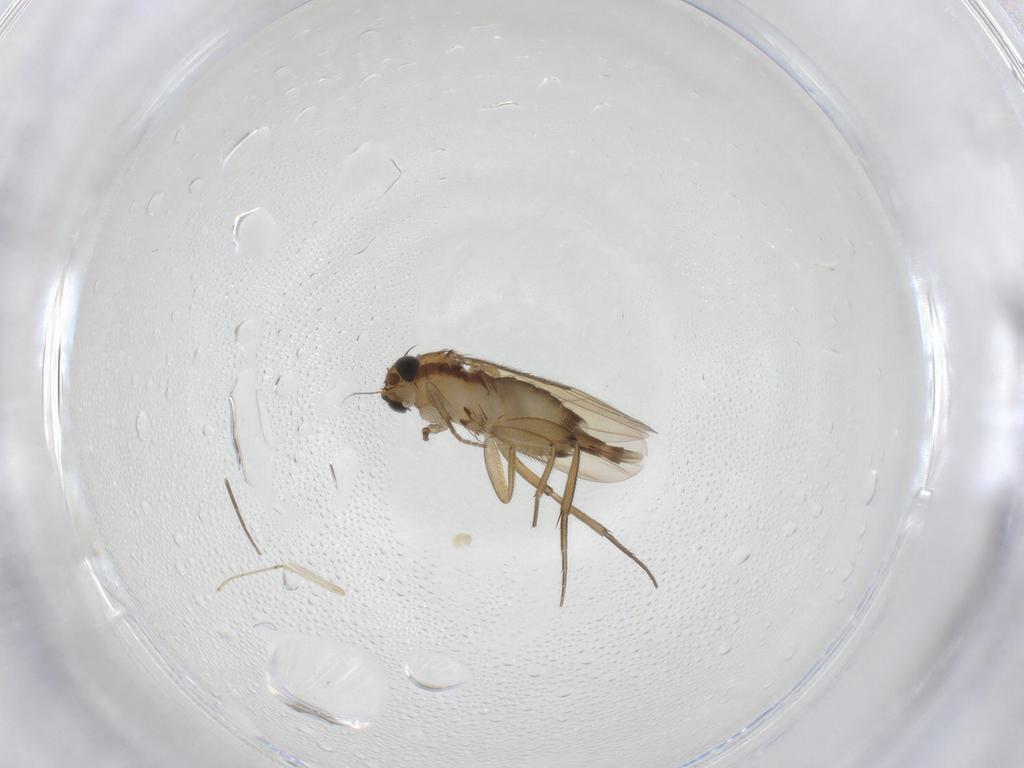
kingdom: Animalia
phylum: Arthropoda
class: Insecta
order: Diptera
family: Phoridae
